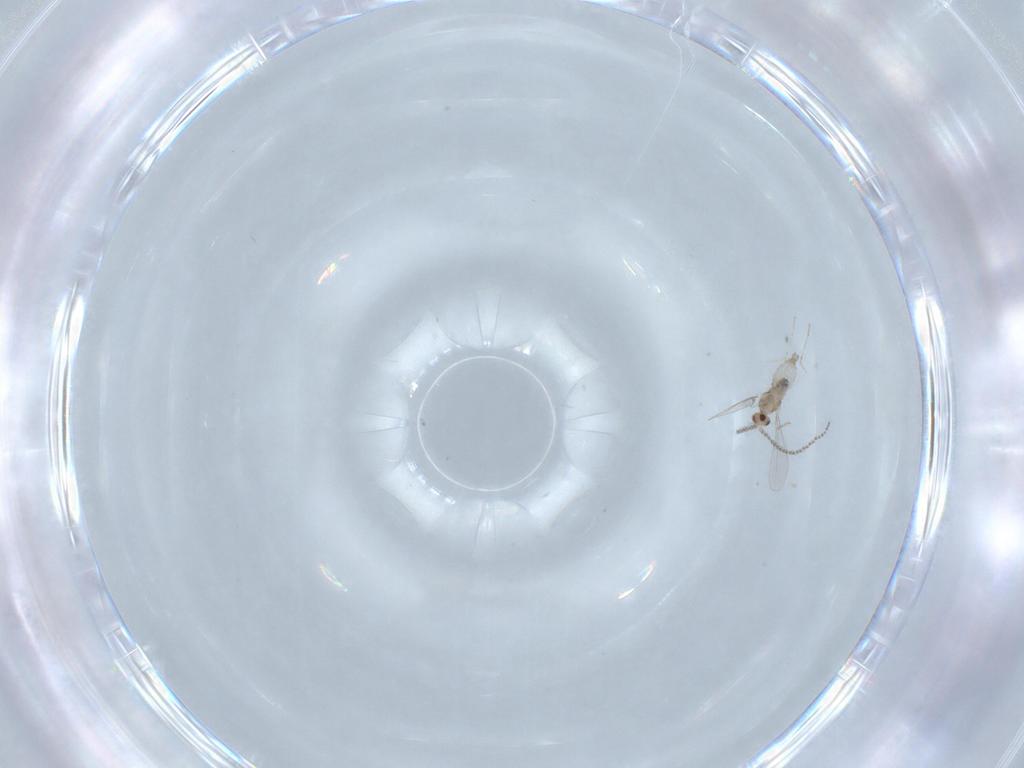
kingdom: Animalia
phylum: Arthropoda
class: Insecta
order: Diptera
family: Cecidomyiidae
